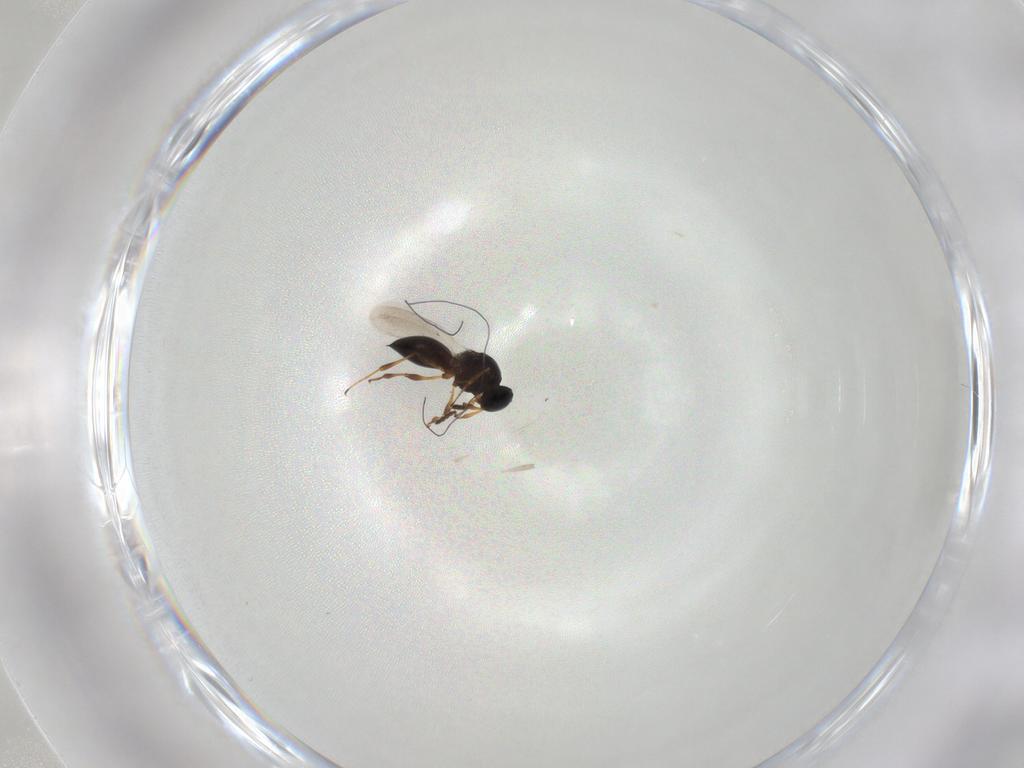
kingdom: Animalia
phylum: Arthropoda
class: Insecta
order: Hymenoptera
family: Platygastridae
